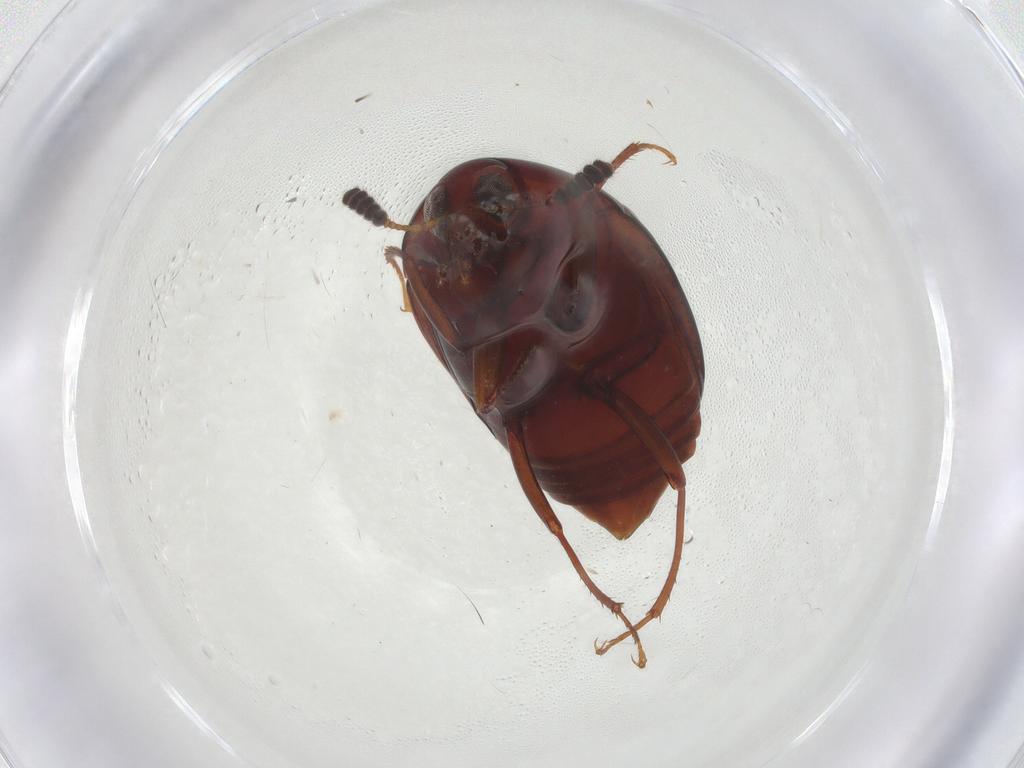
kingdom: Animalia
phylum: Arthropoda
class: Insecta
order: Coleoptera
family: Staphylinidae
